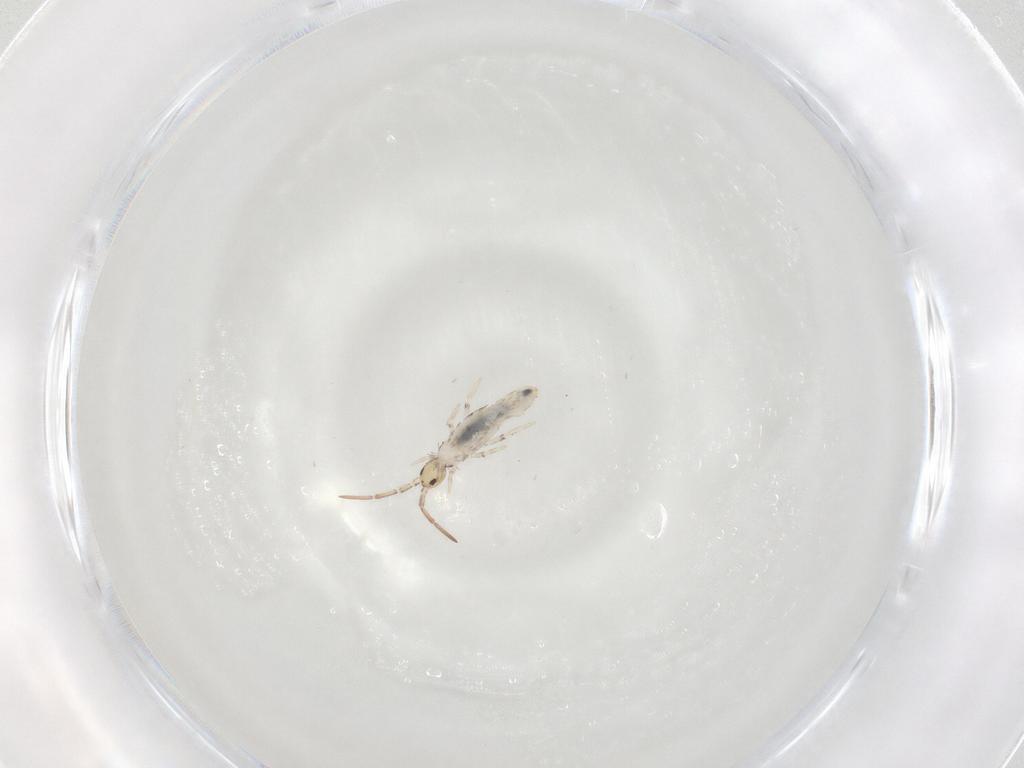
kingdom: Animalia
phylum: Arthropoda
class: Collembola
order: Entomobryomorpha
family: Entomobryidae
